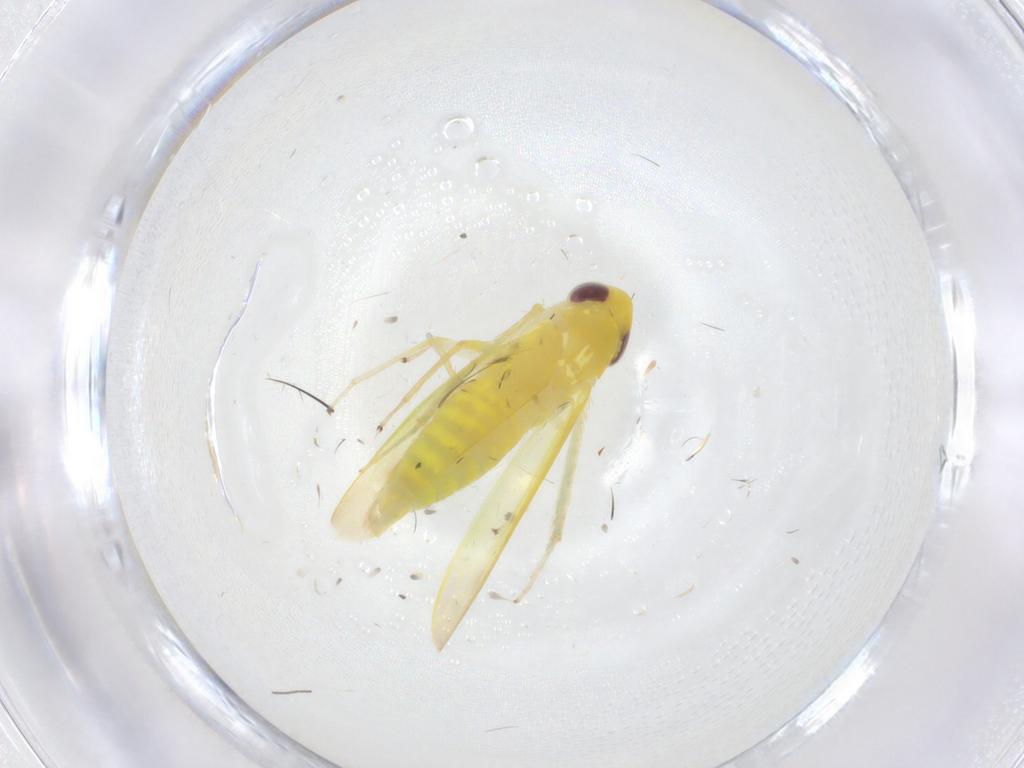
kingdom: Animalia
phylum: Arthropoda
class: Insecta
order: Hemiptera
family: Cicadellidae
